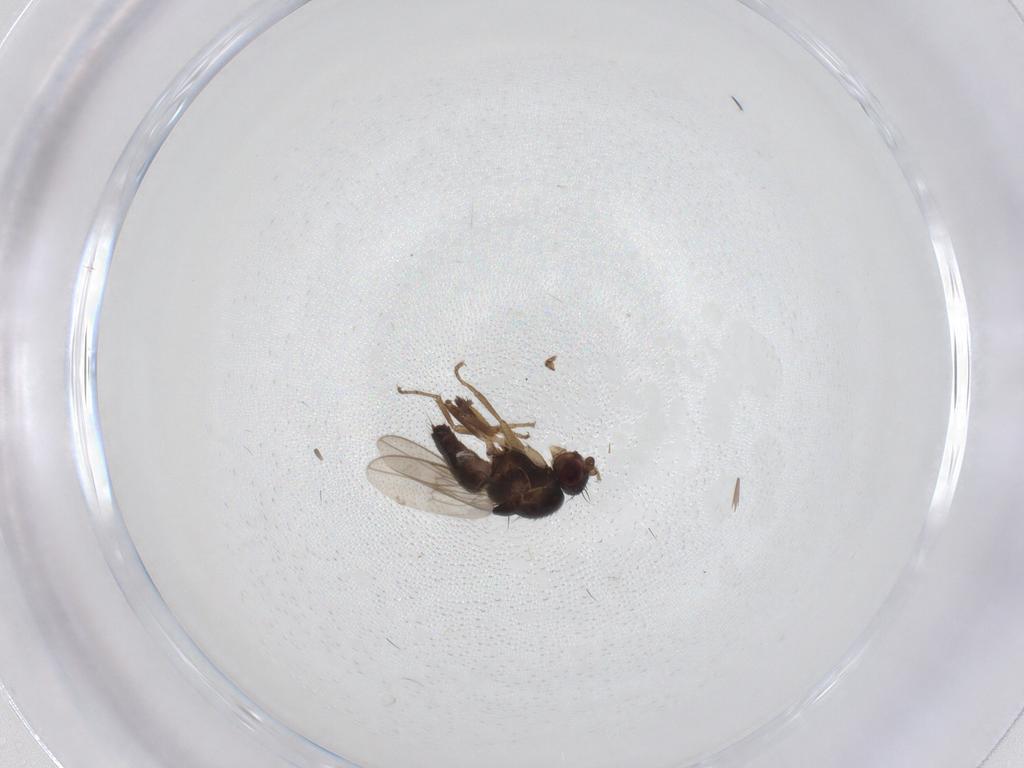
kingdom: Animalia
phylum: Arthropoda
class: Insecta
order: Diptera
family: Sphaeroceridae
